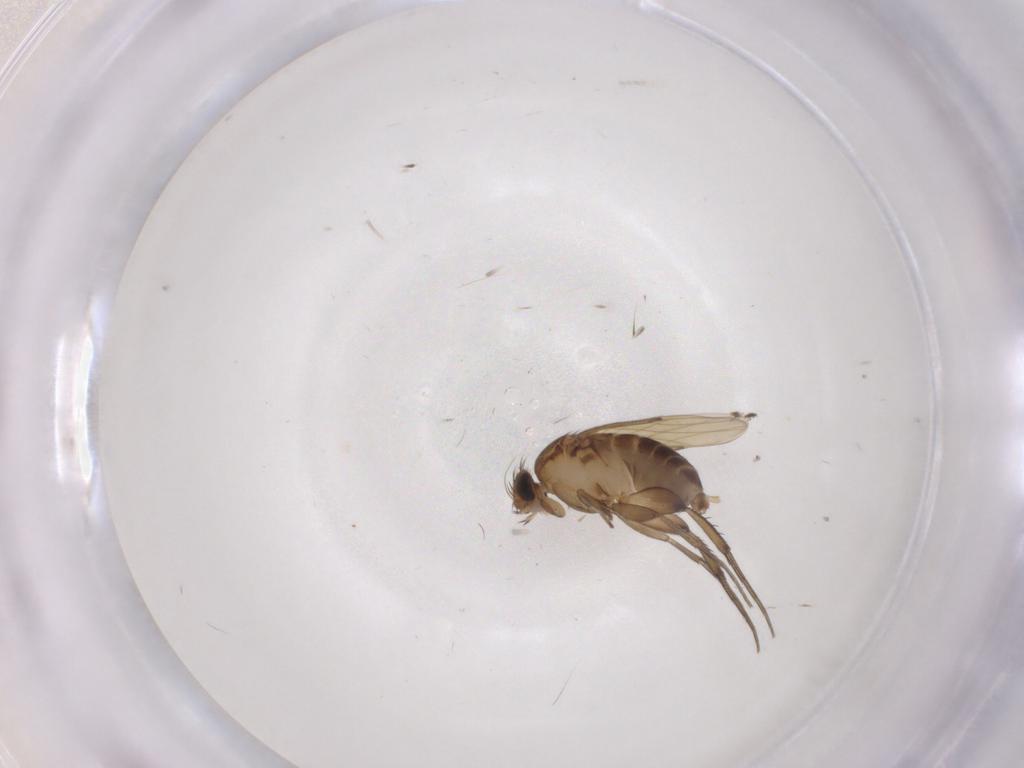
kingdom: Animalia
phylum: Arthropoda
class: Insecta
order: Diptera
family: Phoridae
